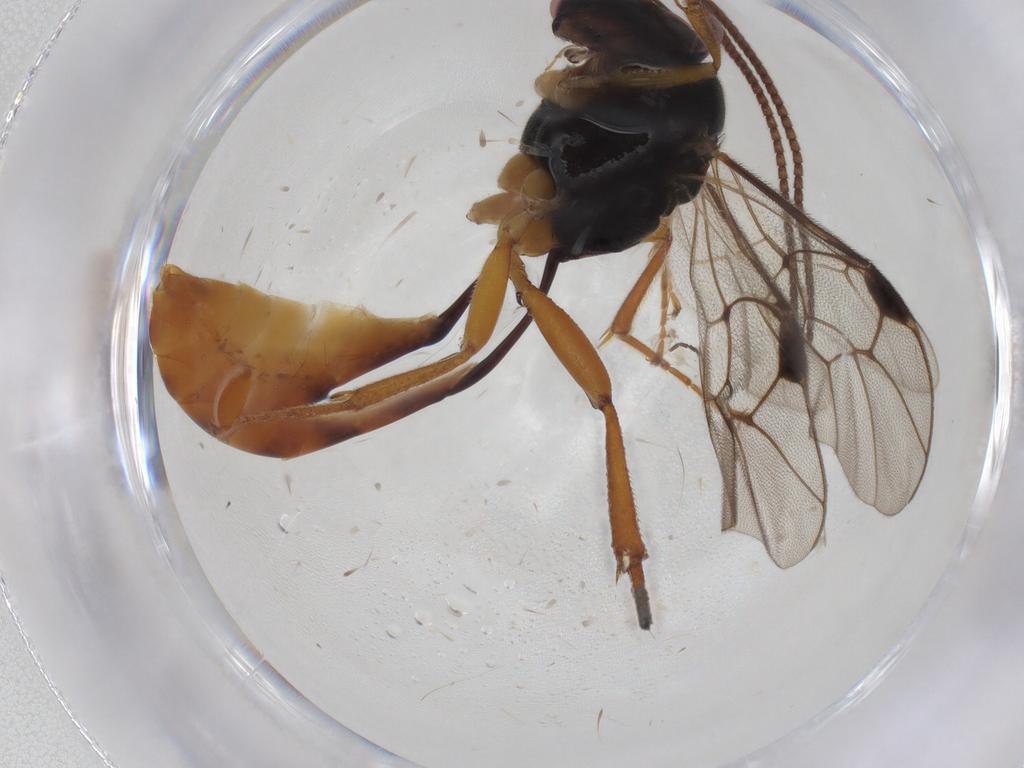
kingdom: Animalia
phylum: Arthropoda
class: Insecta
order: Hymenoptera
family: Ichneumonidae
